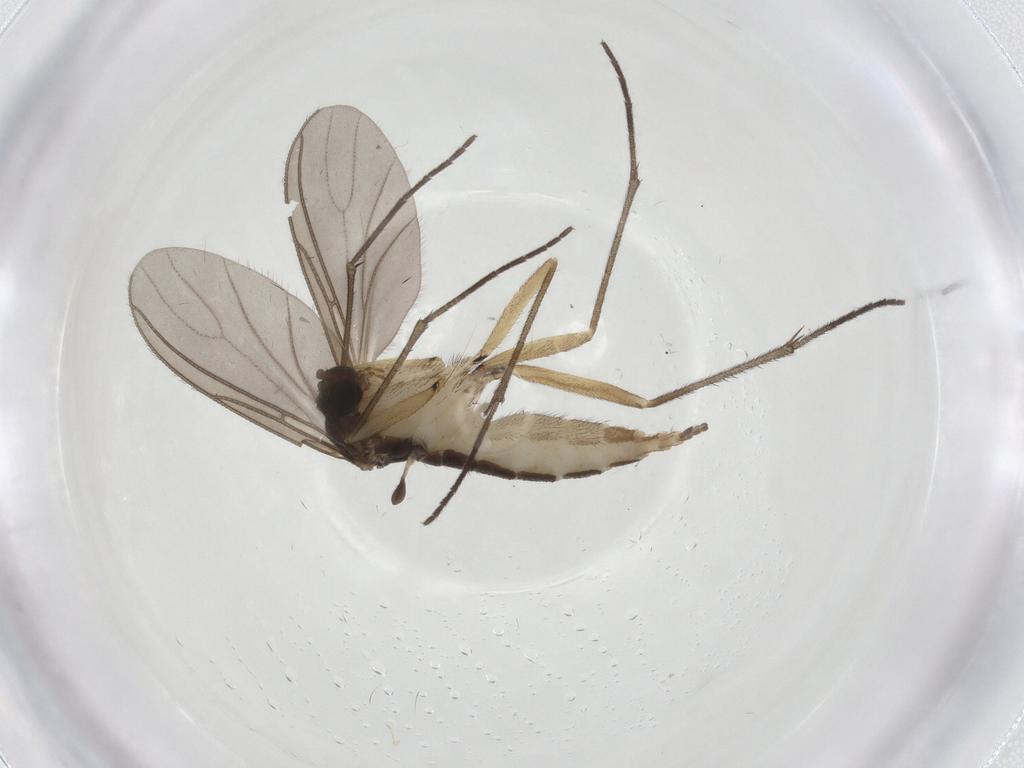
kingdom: Animalia
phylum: Arthropoda
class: Insecta
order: Diptera
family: Sciaridae
